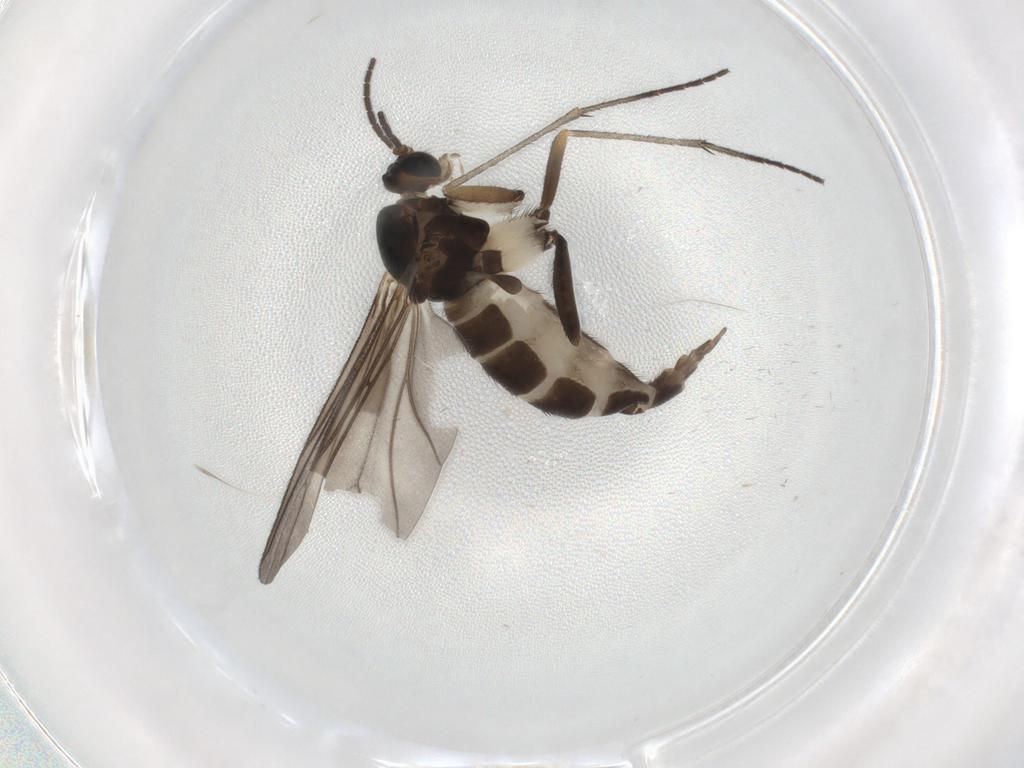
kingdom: Animalia
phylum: Arthropoda
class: Insecta
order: Diptera
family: Sciaridae
